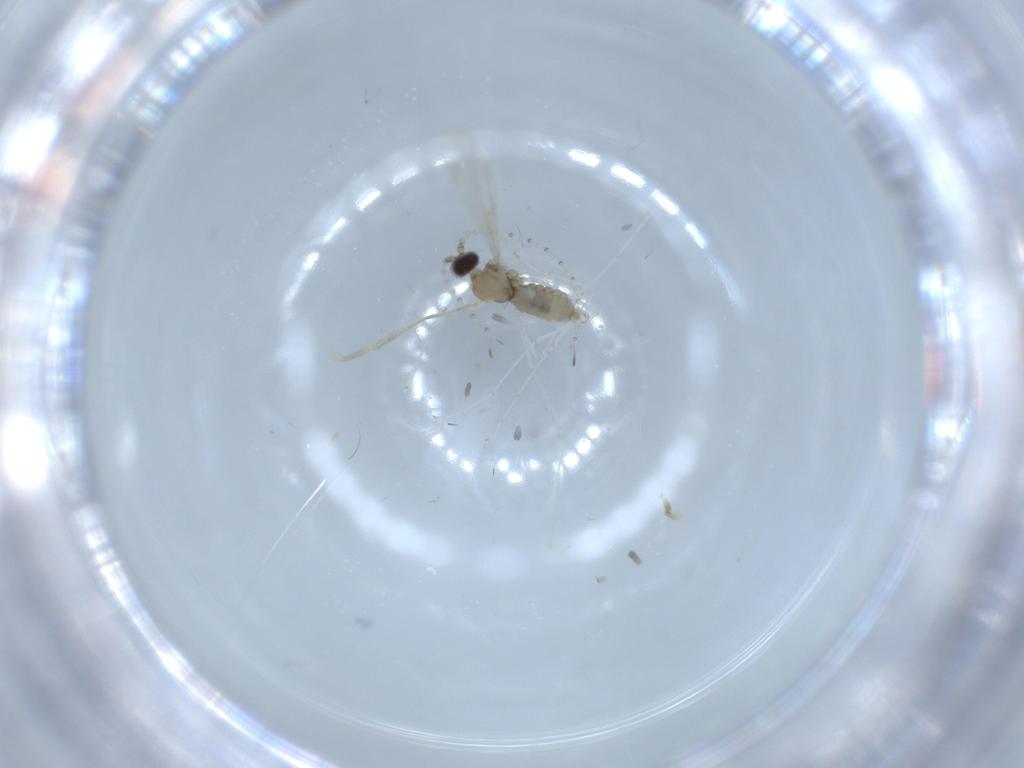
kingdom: Animalia
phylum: Arthropoda
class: Insecta
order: Diptera
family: Cecidomyiidae
